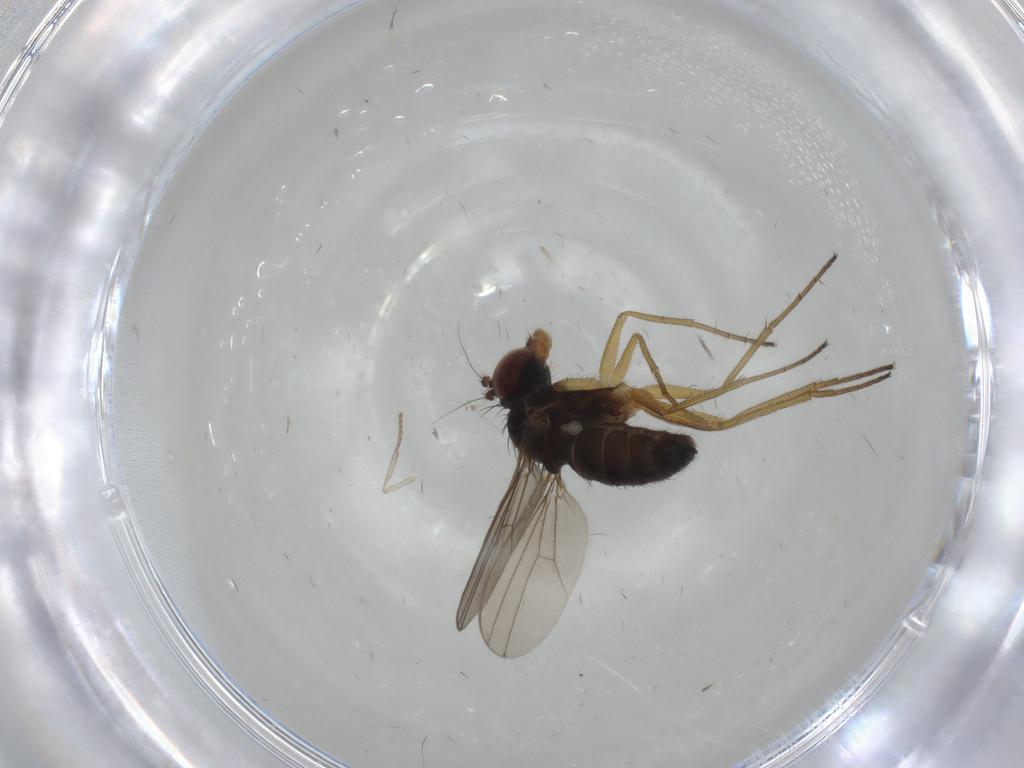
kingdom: Animalia
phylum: Arthropoda
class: Insecta
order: Diptera
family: Dolichopodidae
